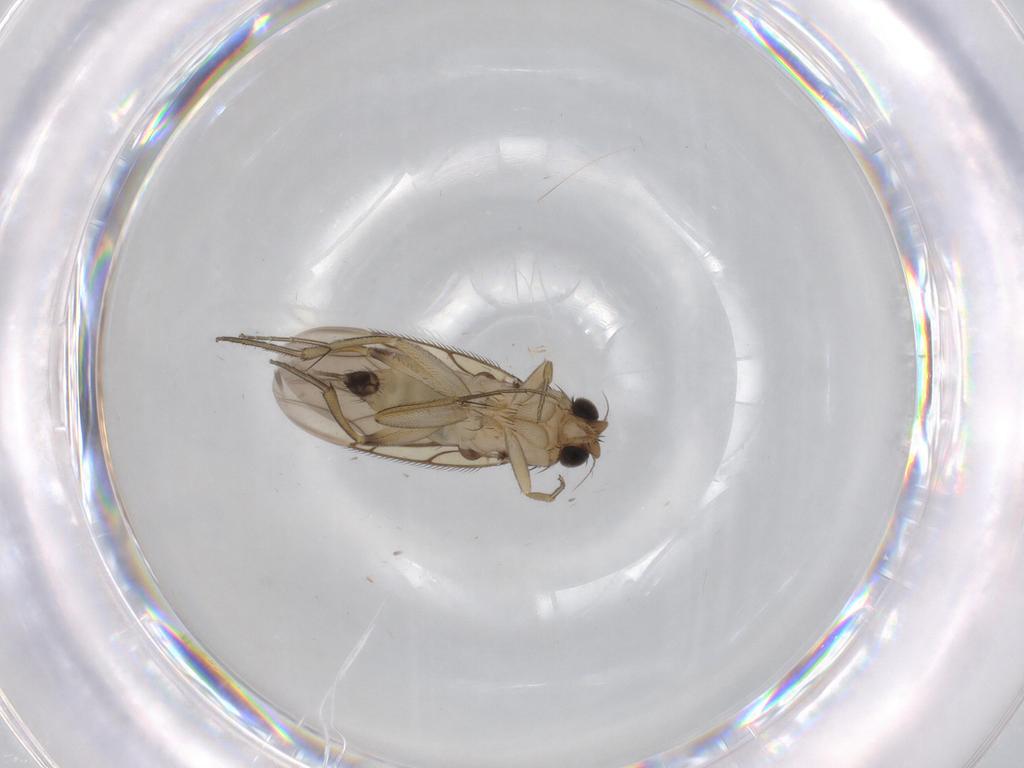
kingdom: Animalia
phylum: Arthropoda
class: Insecta
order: Diptera
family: Phoridae
